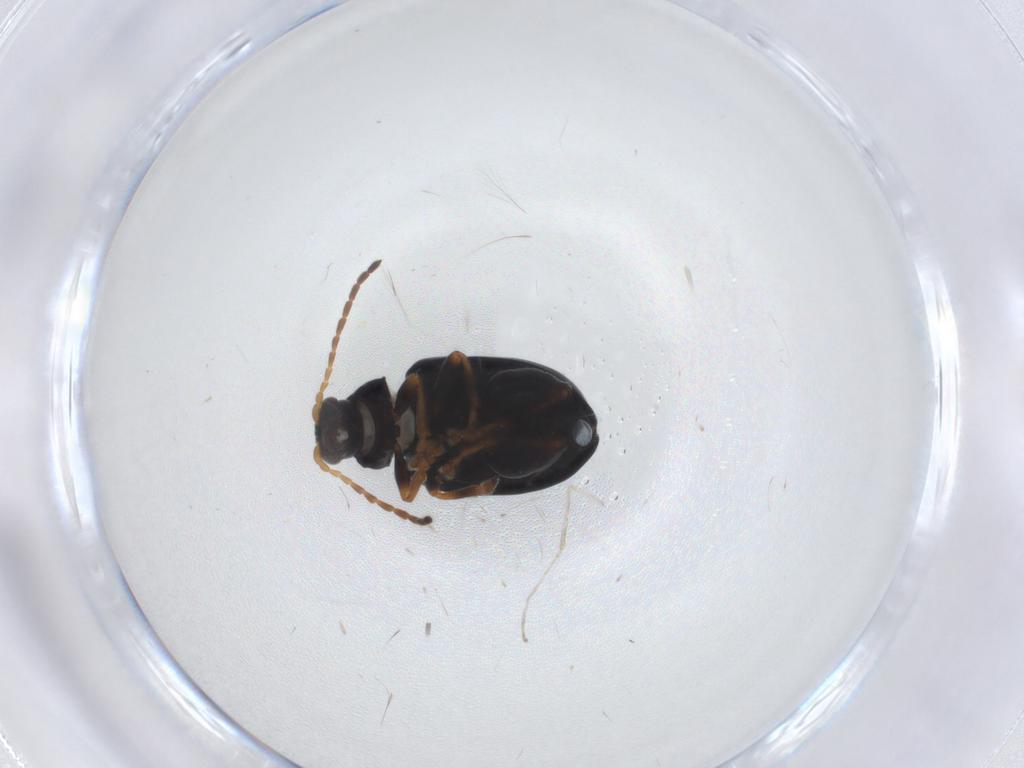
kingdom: Animalia
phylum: Arthropoda
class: Insecta
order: Coleoptera
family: Chrysomelidae
